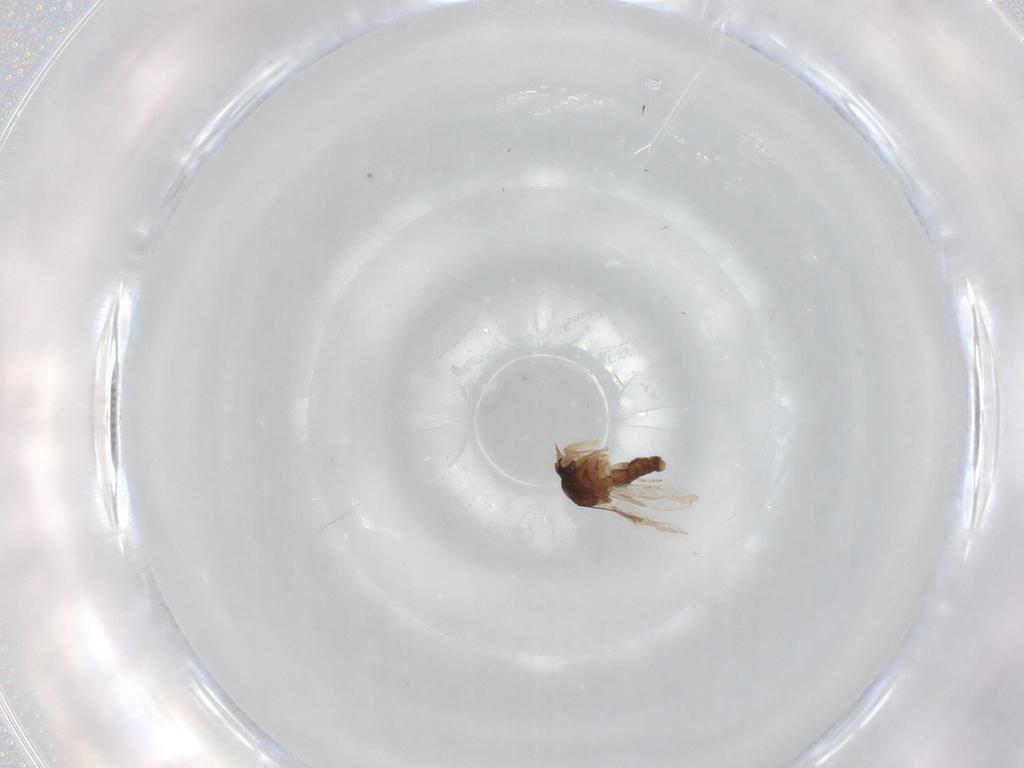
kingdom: Animalia
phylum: Arthropoda
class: Insecta
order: Diptera
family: Ceratopogonidae
